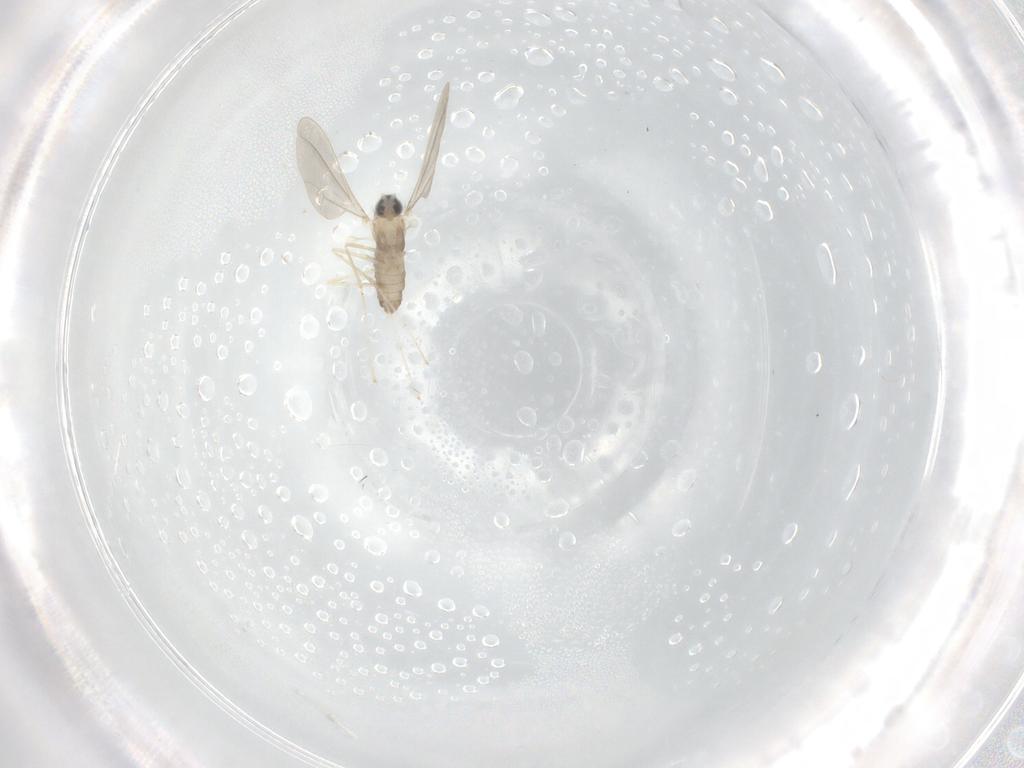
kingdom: Animalia
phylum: Arthropoda
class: Insecta
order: Diptera
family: Cecidomyiidae
